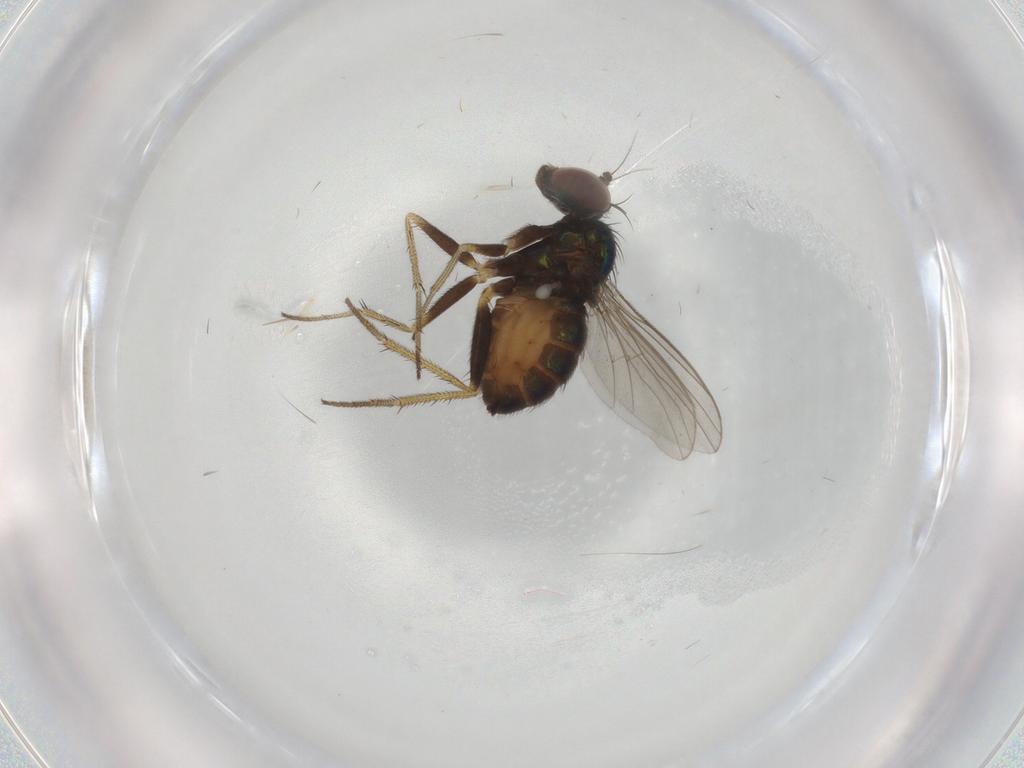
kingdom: Animalia
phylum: Arthropoda
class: Insecta
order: Diptera
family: Dolichopodidae
